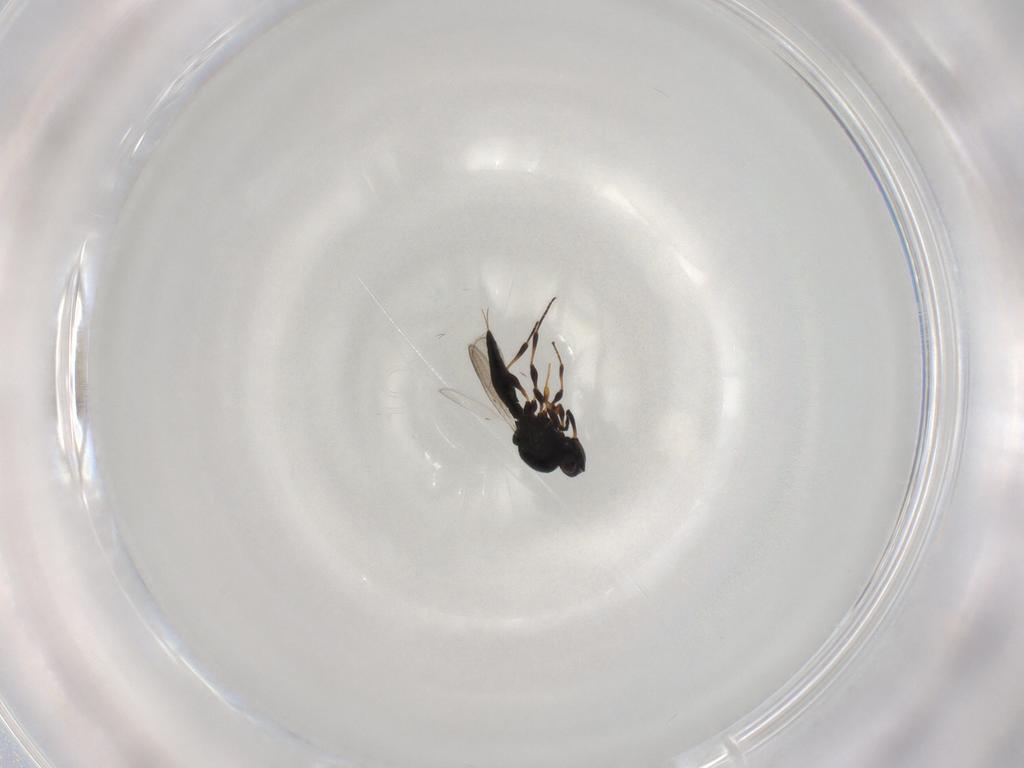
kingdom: Animalia
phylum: Arthropoda
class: Insecta
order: Hymenoptera
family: Platygastridae
